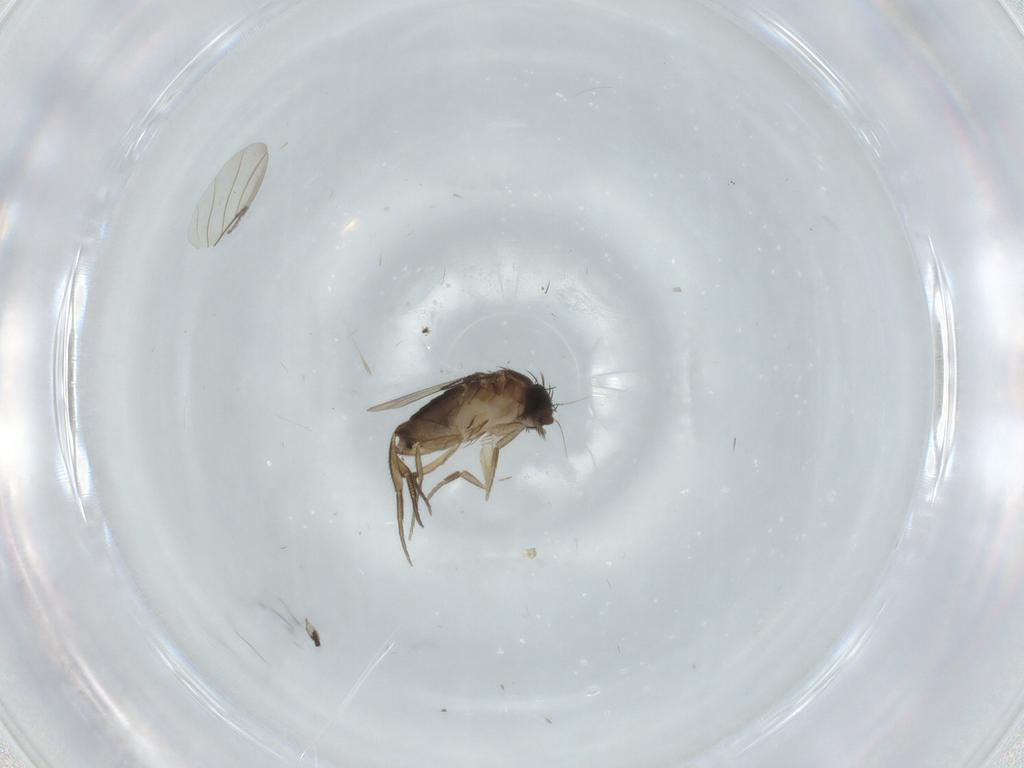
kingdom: Animalia
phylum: Arthropoda
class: Insecta
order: Diptera
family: Phoridae
